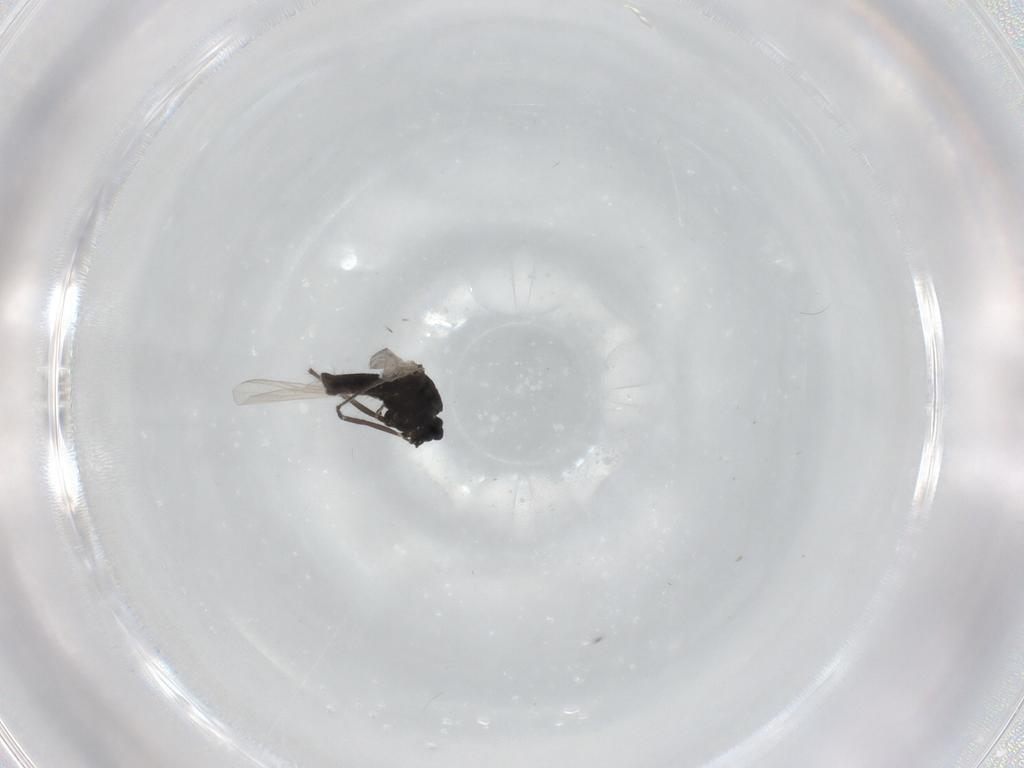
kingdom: Animalia
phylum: Arthropoda
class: Insecta
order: Diptera
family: Chironomidae
